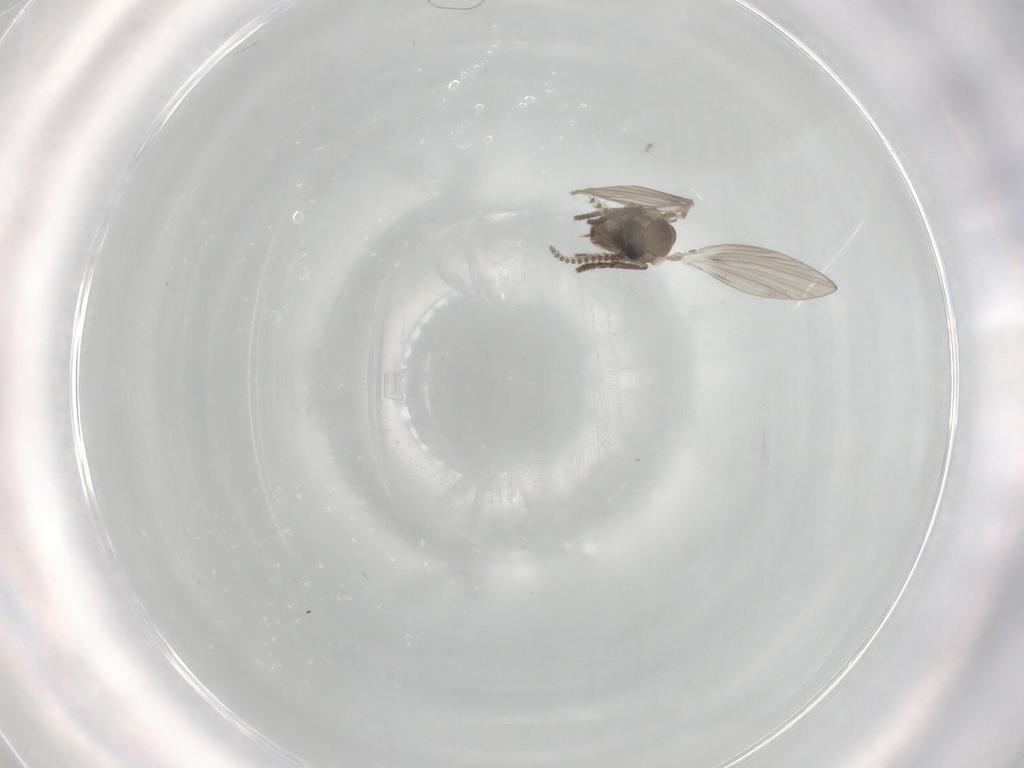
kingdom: Animalia
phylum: Arthropoda
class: Insecta
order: Diptera
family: Psychodidae
